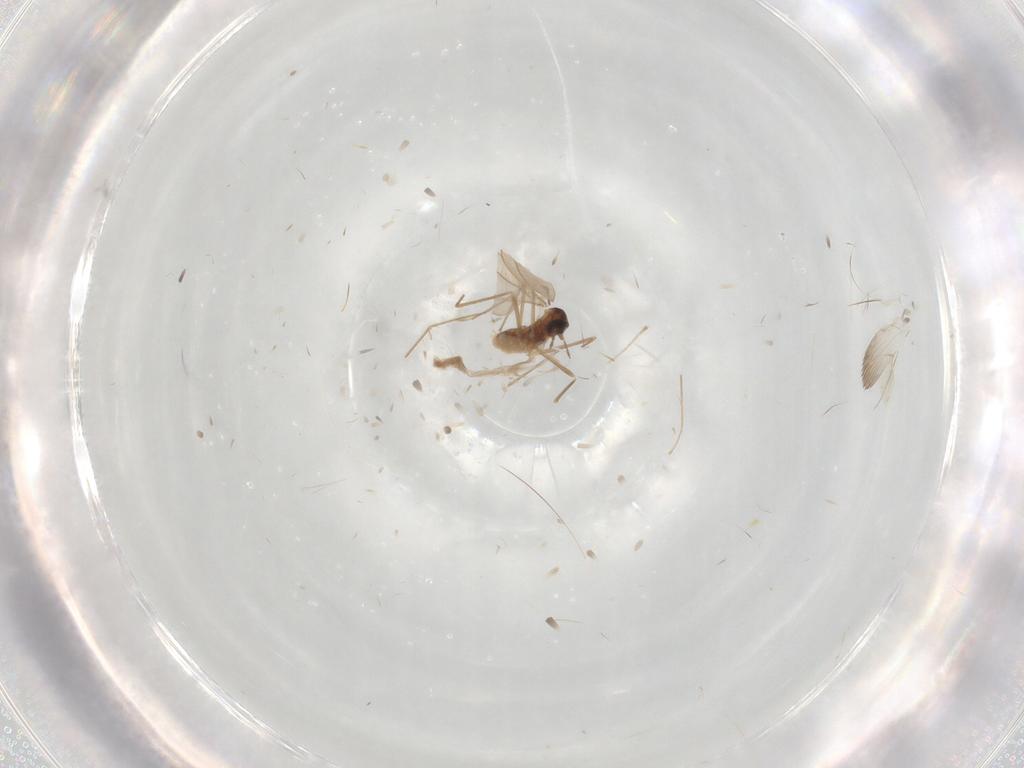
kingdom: Animalia
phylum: Arthropoda
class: Insecta
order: Diptera
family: Cecidomyiidae
